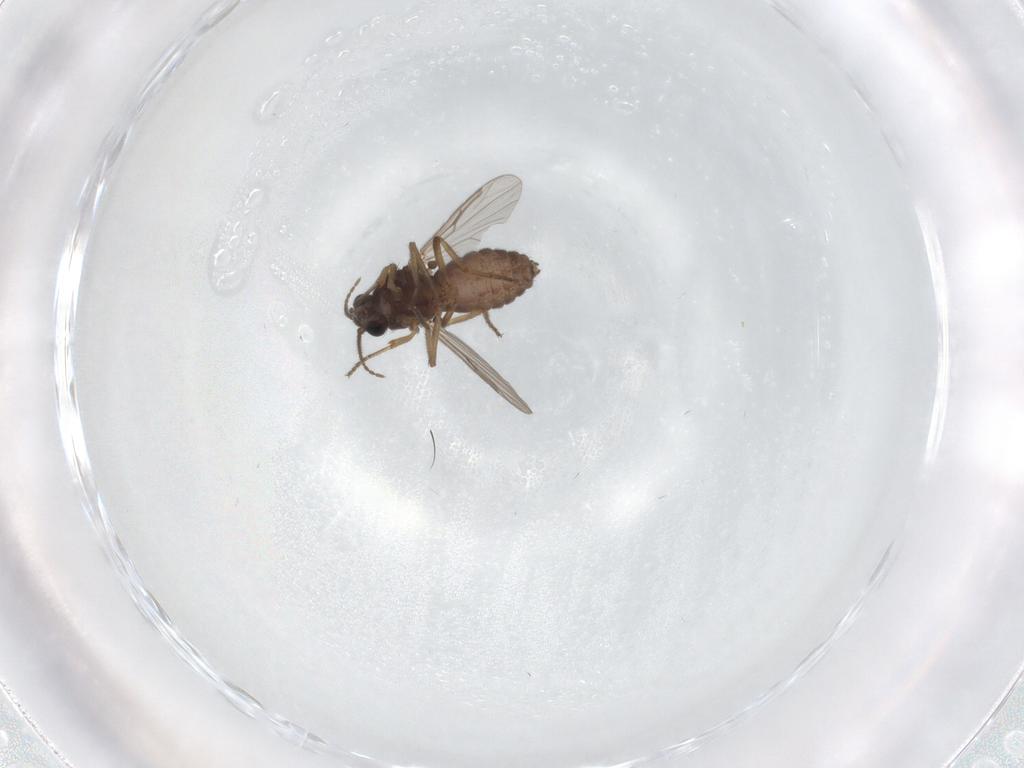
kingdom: Animalia
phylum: Arthropoda
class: Insecta
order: Diptera
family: Ceratopogonidae
